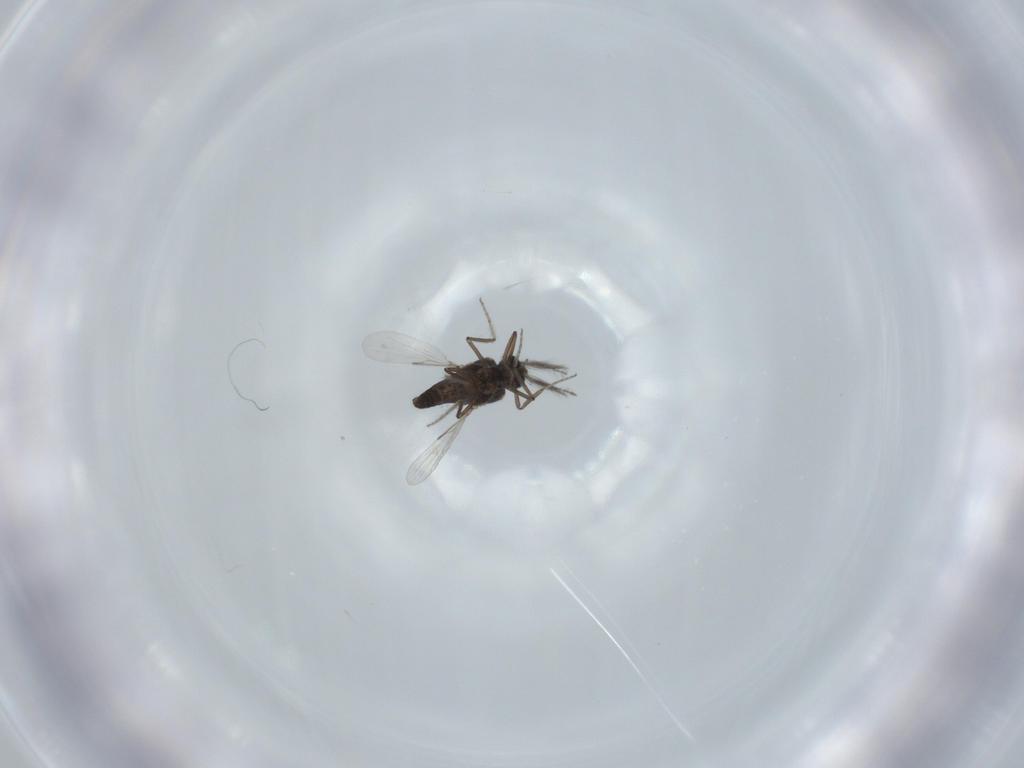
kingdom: Animalia
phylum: Arthropoda
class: Insecta
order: Diptera
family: Ceratopogonidae
